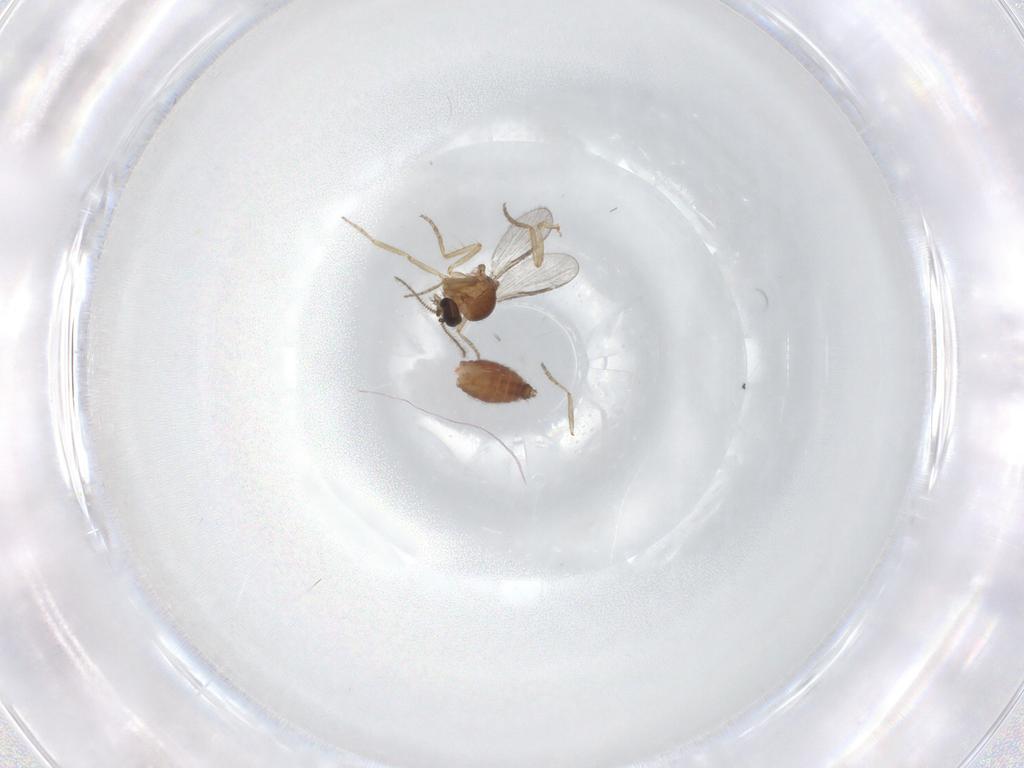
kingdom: Animalia
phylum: Arthropoda
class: Insecta
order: Diptera
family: Ceratopogonidae
